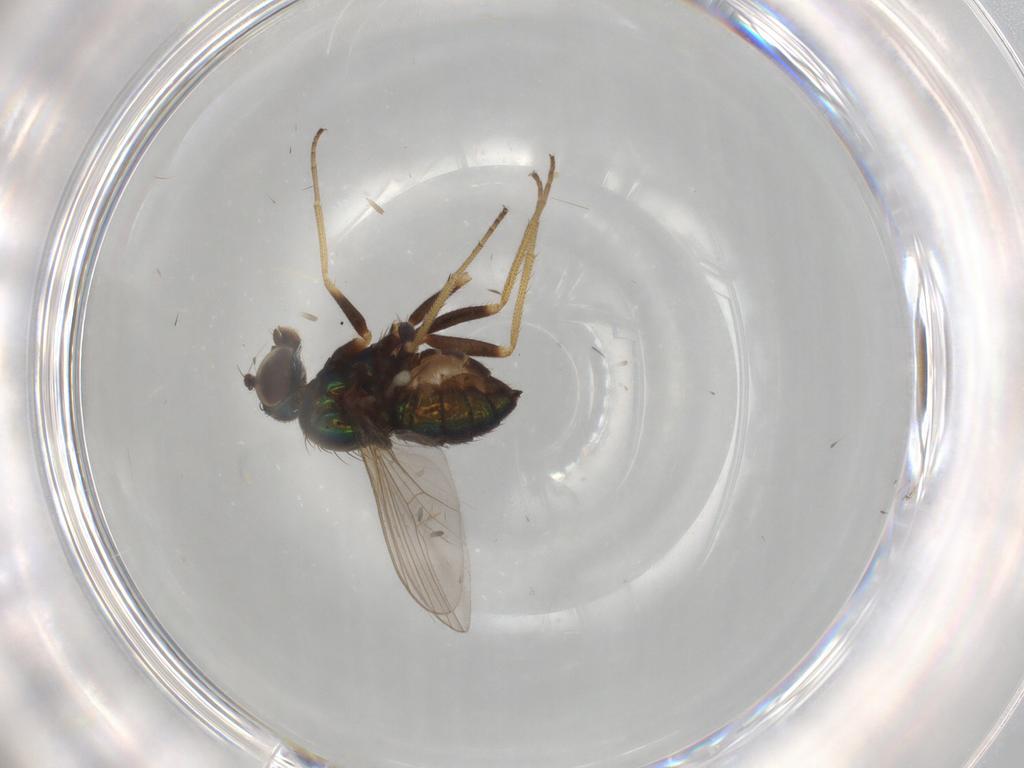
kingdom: Animalia
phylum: Arthropoda
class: Insecta
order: Diptera
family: Dolichopodidae
